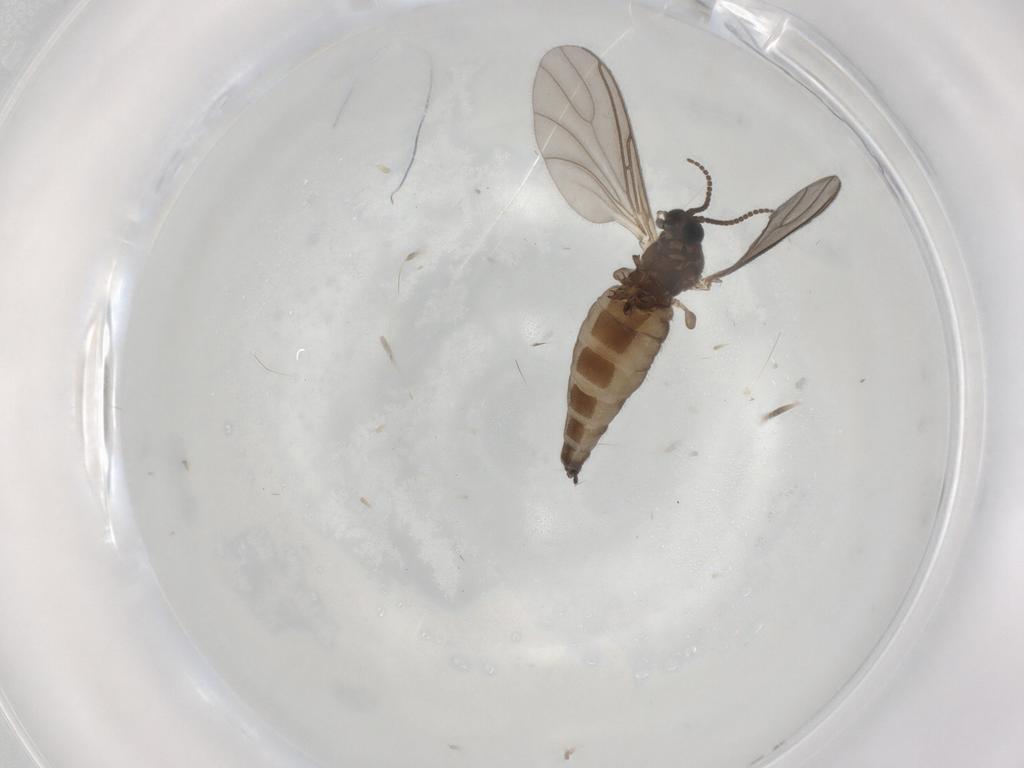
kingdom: Animalia
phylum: Arthropoda
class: Insecta
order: Diptera
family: Sciaridae
